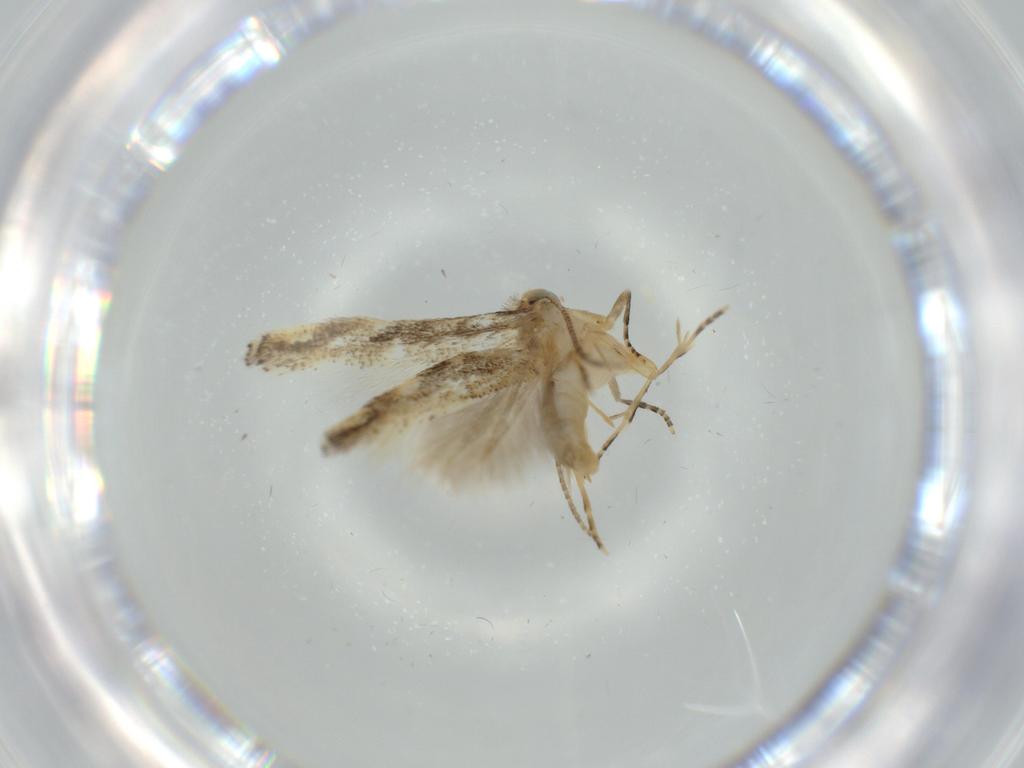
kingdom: Animalia
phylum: Arthropoda
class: Insecta
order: Lepidoptera
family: Bucculatricidae
